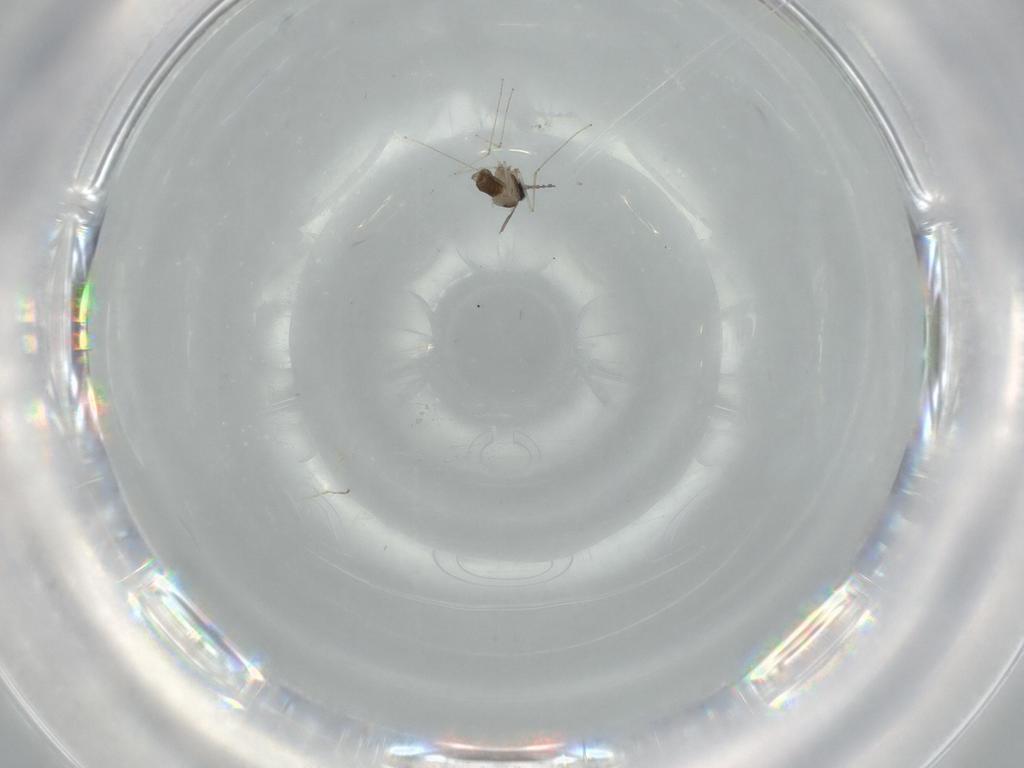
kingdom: Animalia
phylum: Arthropoda
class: Insecta
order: Diptera
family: Cecidomyiidae
